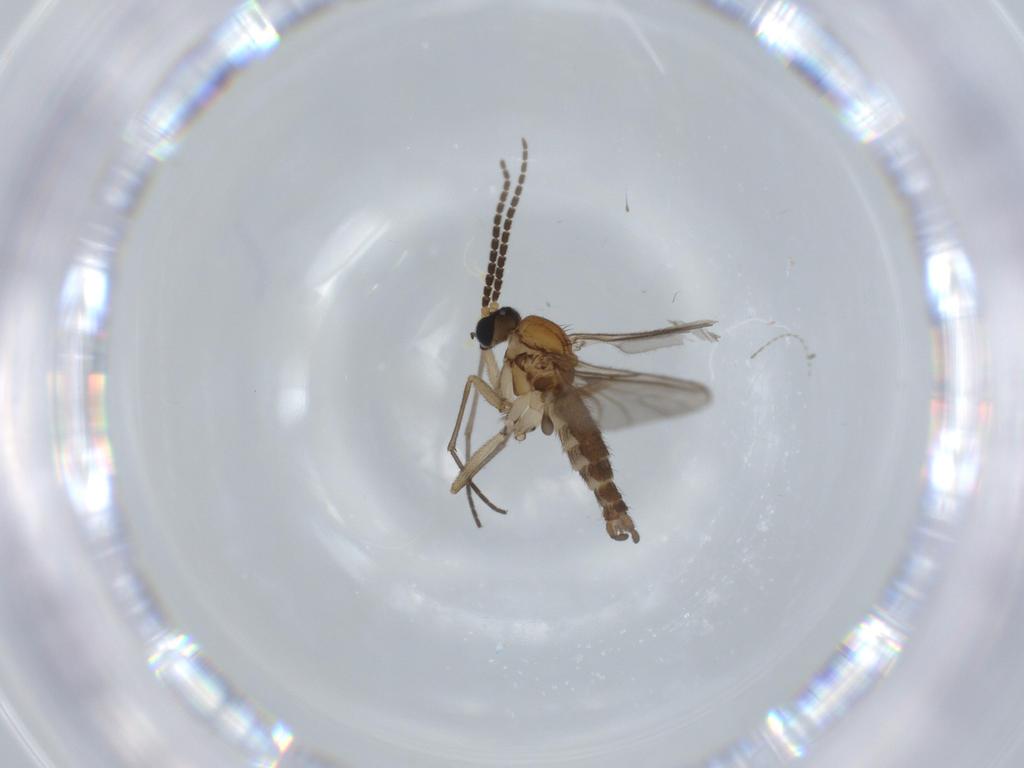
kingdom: Animalia
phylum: Arthropoda
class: Insecta
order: Diptera
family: Sciaridae
